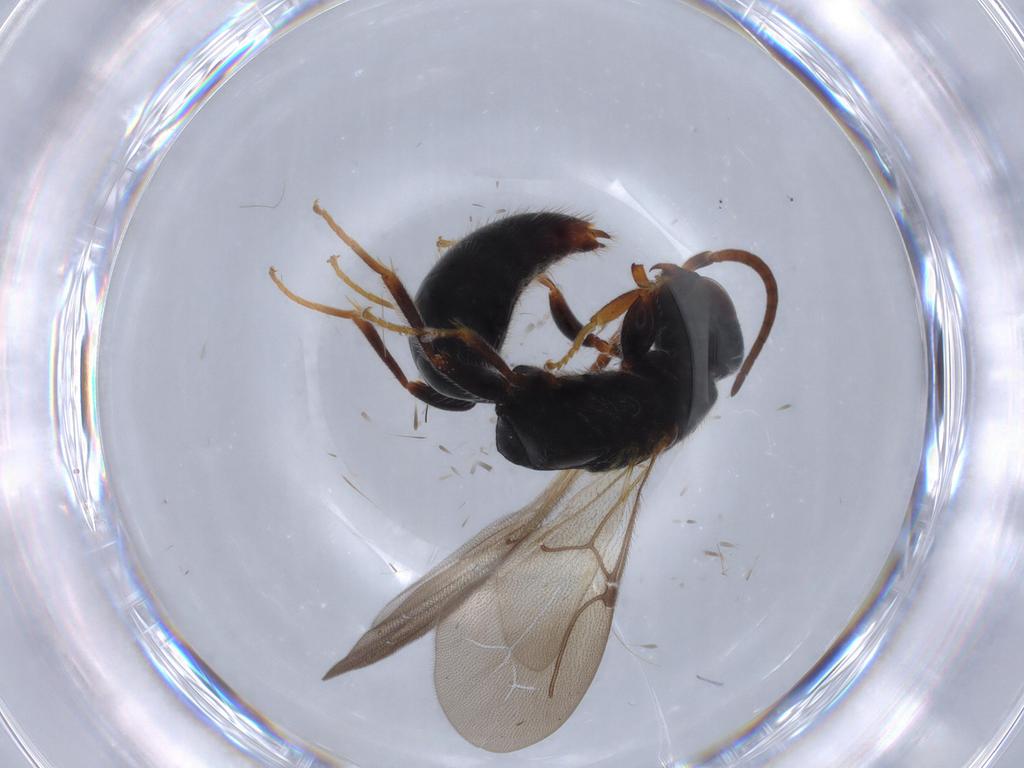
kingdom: Animalia
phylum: Arthropoda
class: Insecta
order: Hymenoptera
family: Bethylidae
